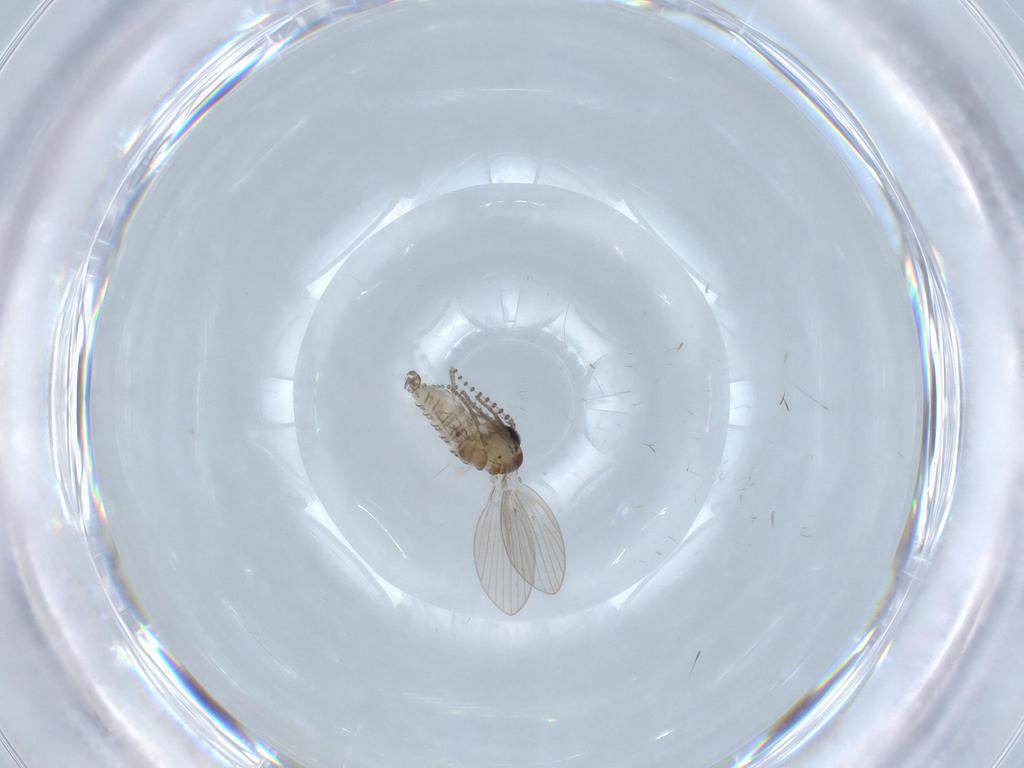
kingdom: Animalia
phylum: Arthropoda
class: Insecta
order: Diptera
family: Psychodidae
